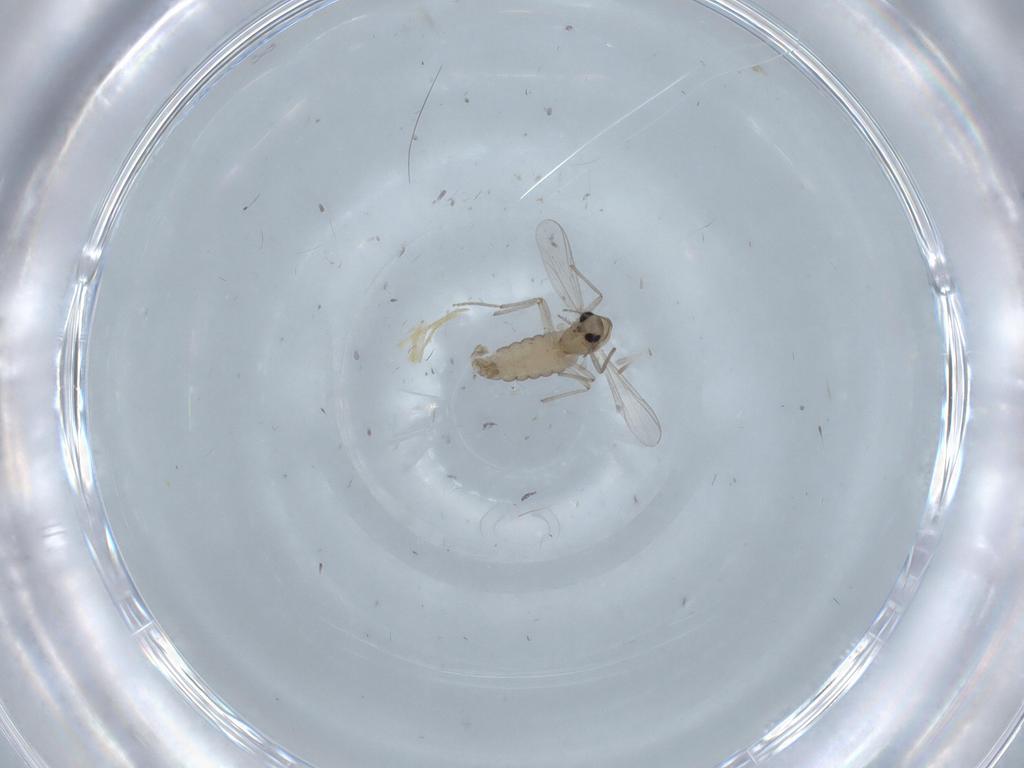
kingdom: Animalia
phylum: Arthropoda
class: Insecta
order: Diptera
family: Chironomidae
